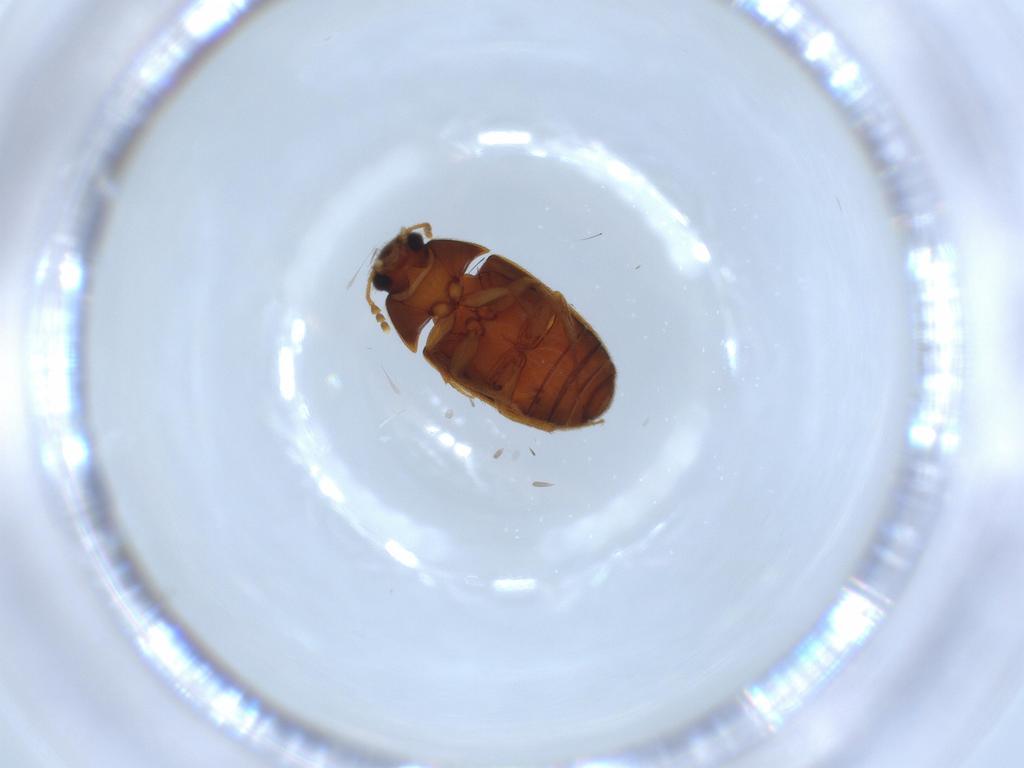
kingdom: Animalia
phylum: Arthropoda
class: Insecta
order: Coleoptera
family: Mycetophagidae
